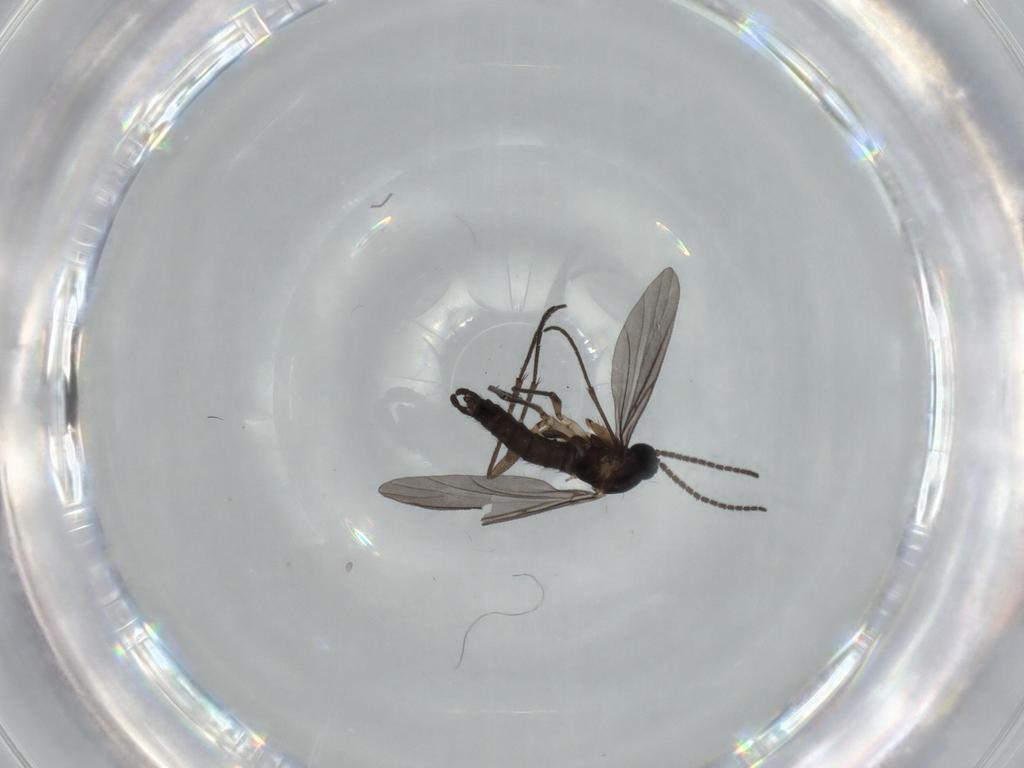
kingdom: Animalia
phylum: Arthropoda
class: Insecta
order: Diptera
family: Sciaridae
